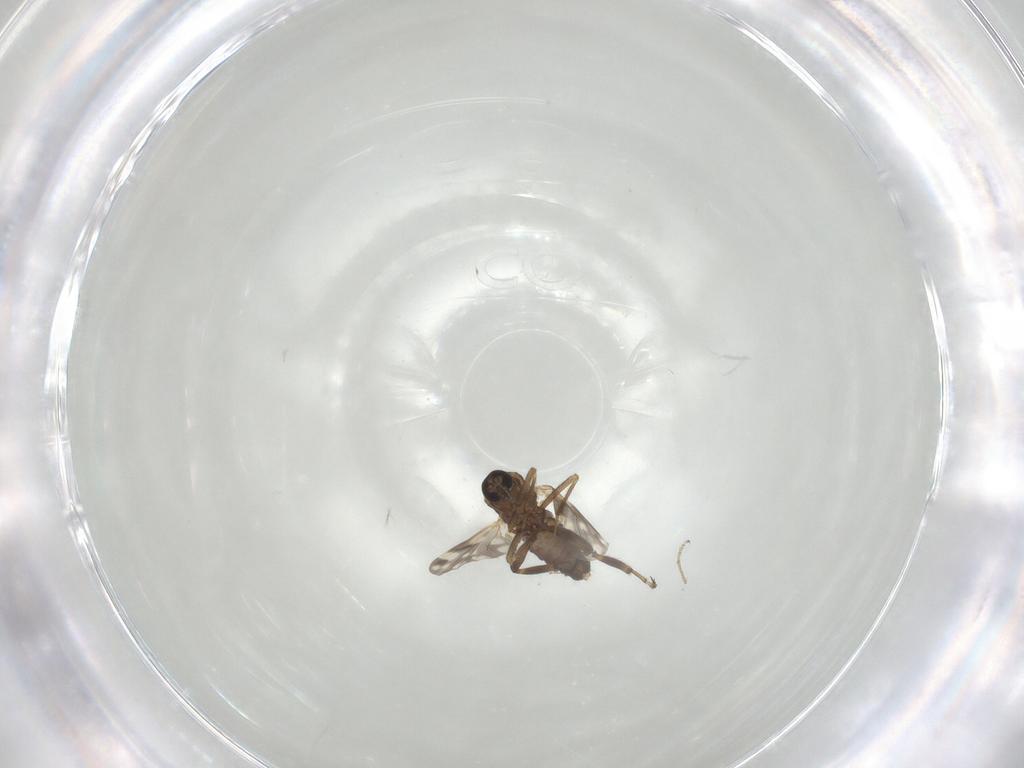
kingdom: Animalia
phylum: Arthropoda
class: Insecta
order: Diptera
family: Ceratopogonidae
